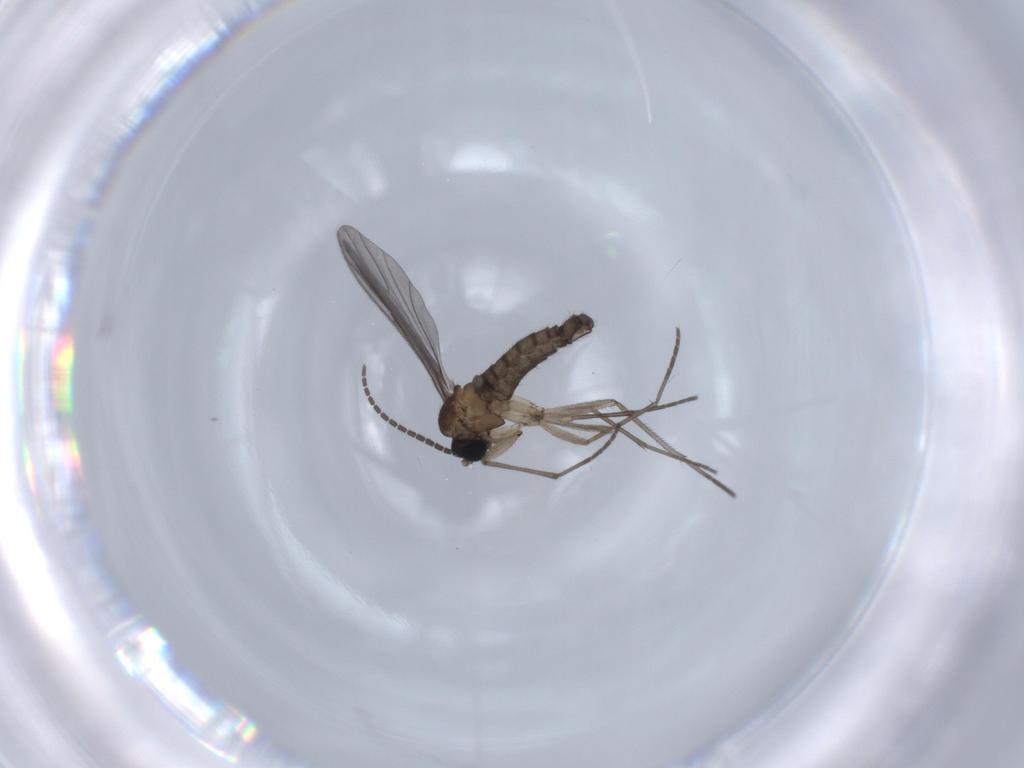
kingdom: Animalia
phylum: Arthropoda
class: Insecta
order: Diptera
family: Sciaridae
